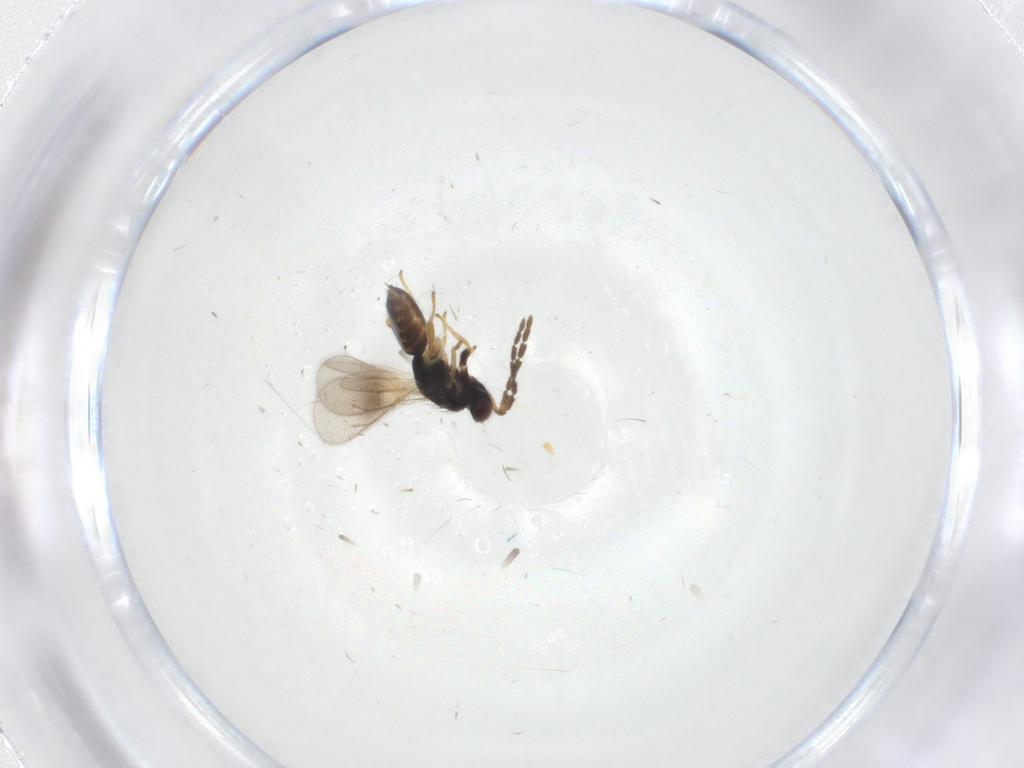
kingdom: Animalia
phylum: Arthropoda
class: Insecta
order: Hymenoptera
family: Eulophidae
